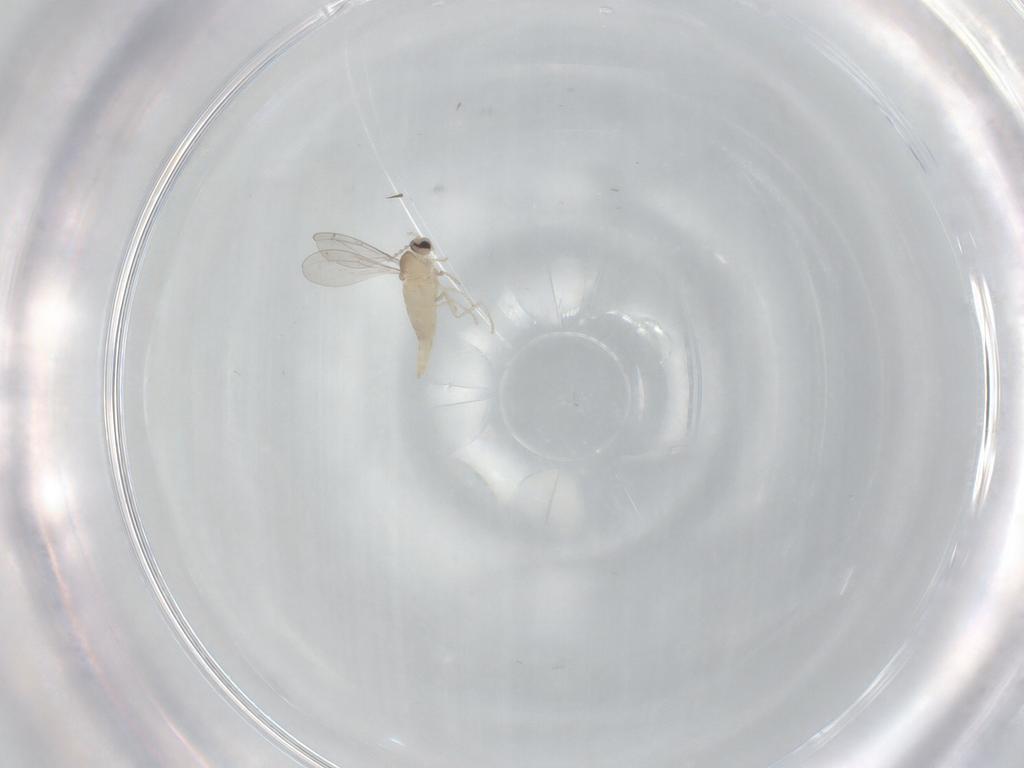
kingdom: Animalia
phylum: Arthropoda
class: Insecta
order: Diptera
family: Cecidomyiidae
